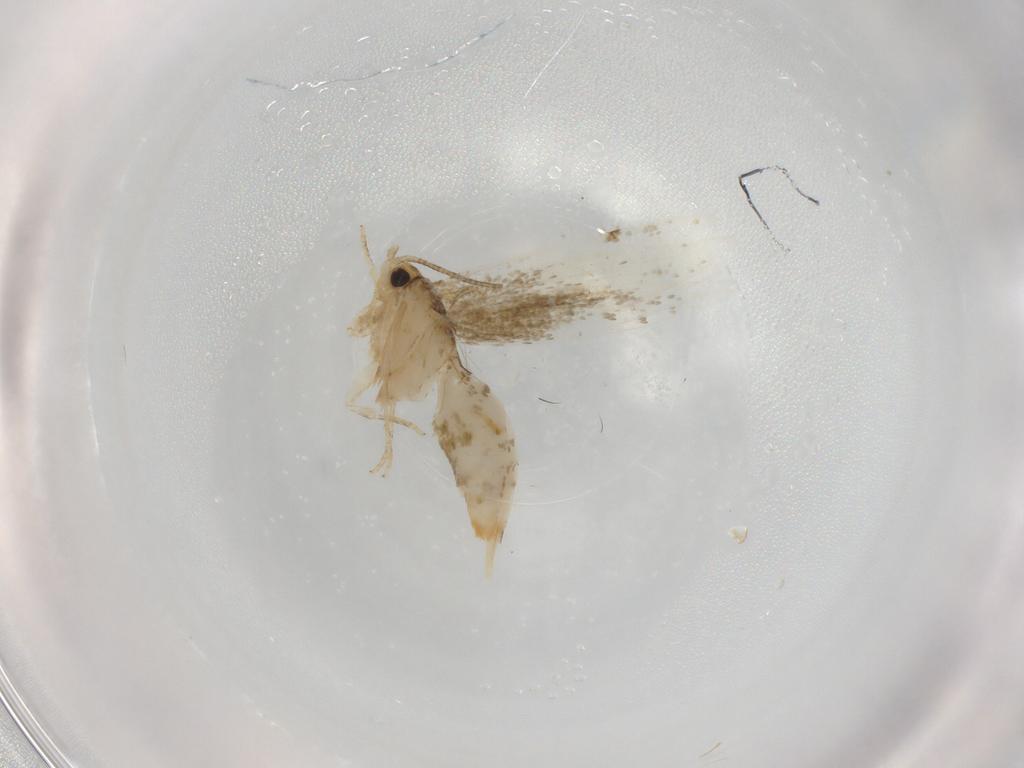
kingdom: Animalia
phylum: Arthropoda
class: Insecta
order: Lepidoptera
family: Tineidae
